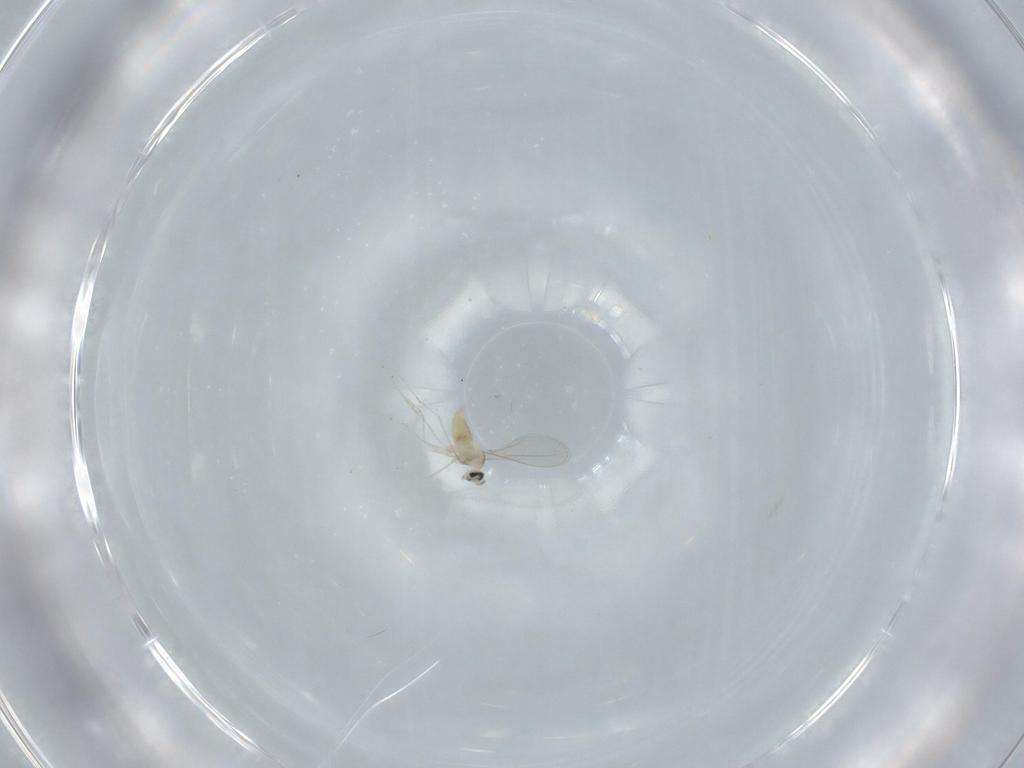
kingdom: Animalia
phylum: Arthropoda
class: Insecta
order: Diptera
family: Cecidomyiidae
